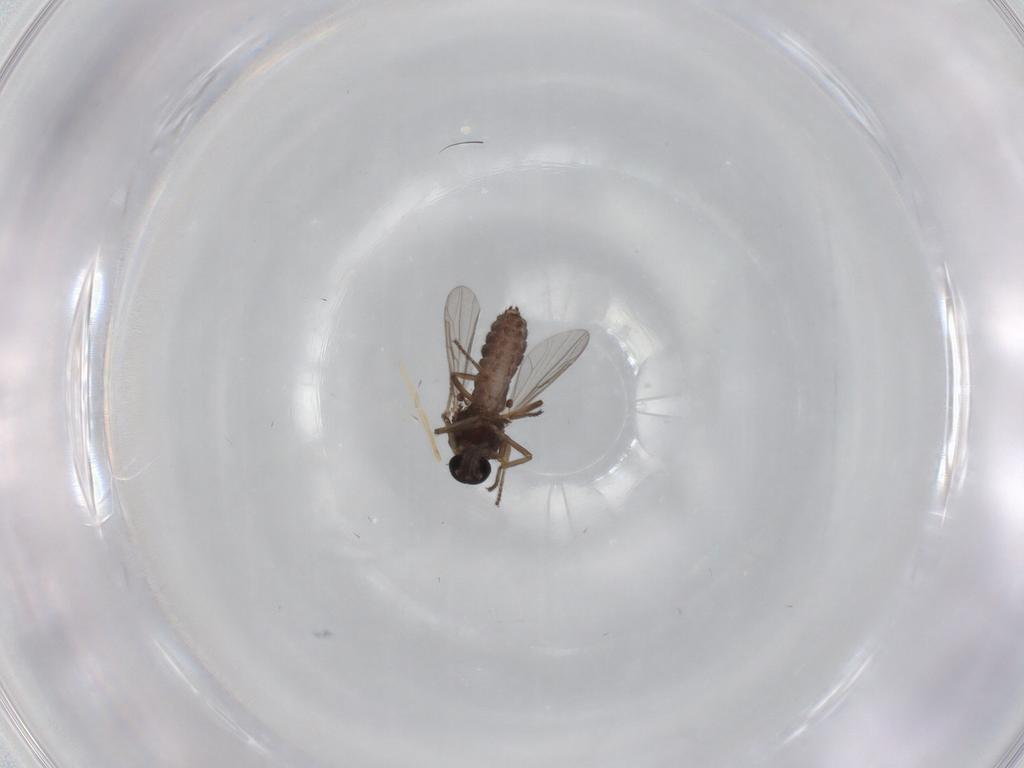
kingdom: Animalia
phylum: Arthropoda
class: Insecta
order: Diptera
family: Ceratopogonidae
